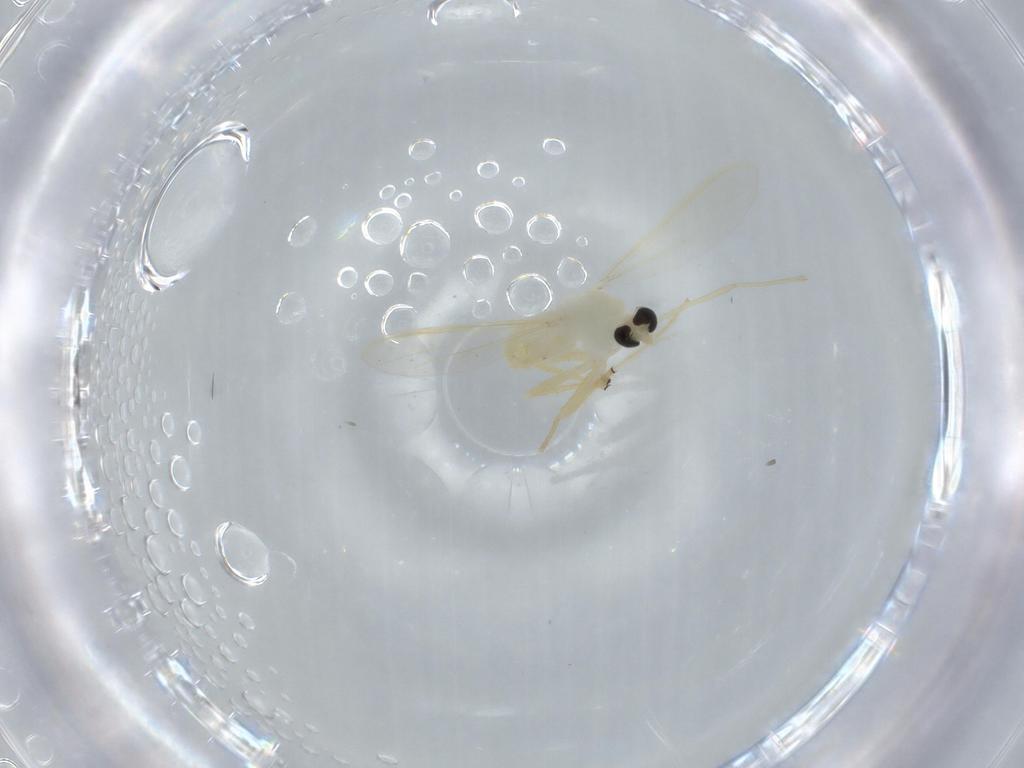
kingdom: Animalia
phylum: Arthropoda
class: Insecta
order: Diptera
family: Chironomidae
